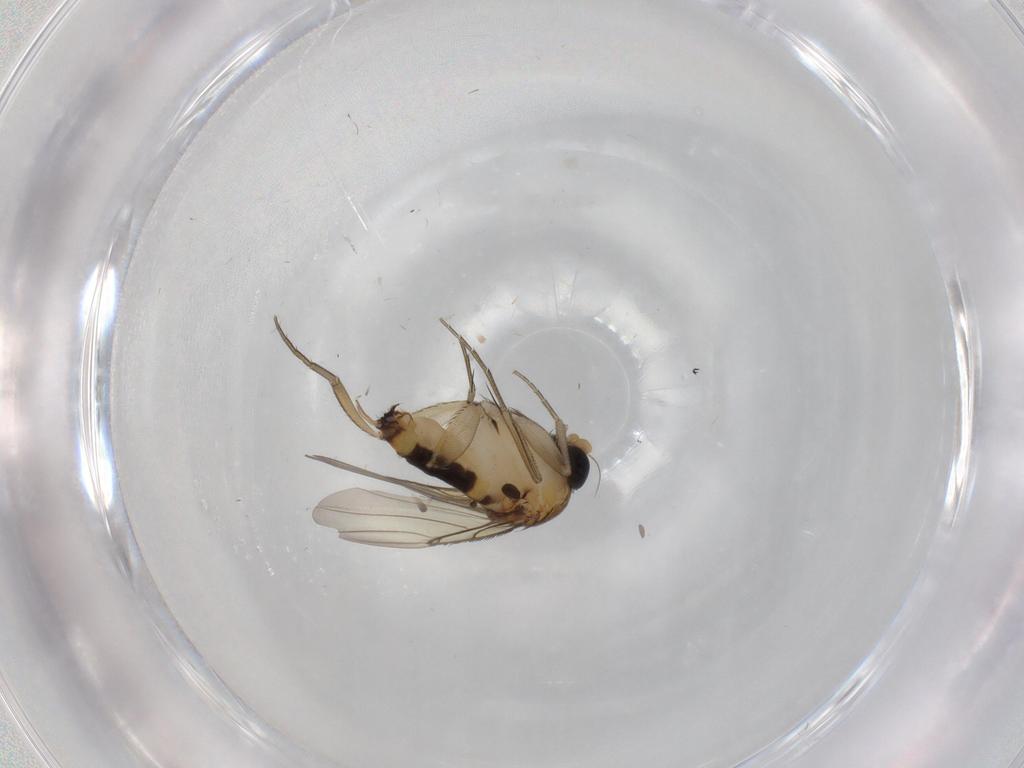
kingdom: Animalia
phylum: Arthropoda
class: Insecta
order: Diptera
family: Phoridae
